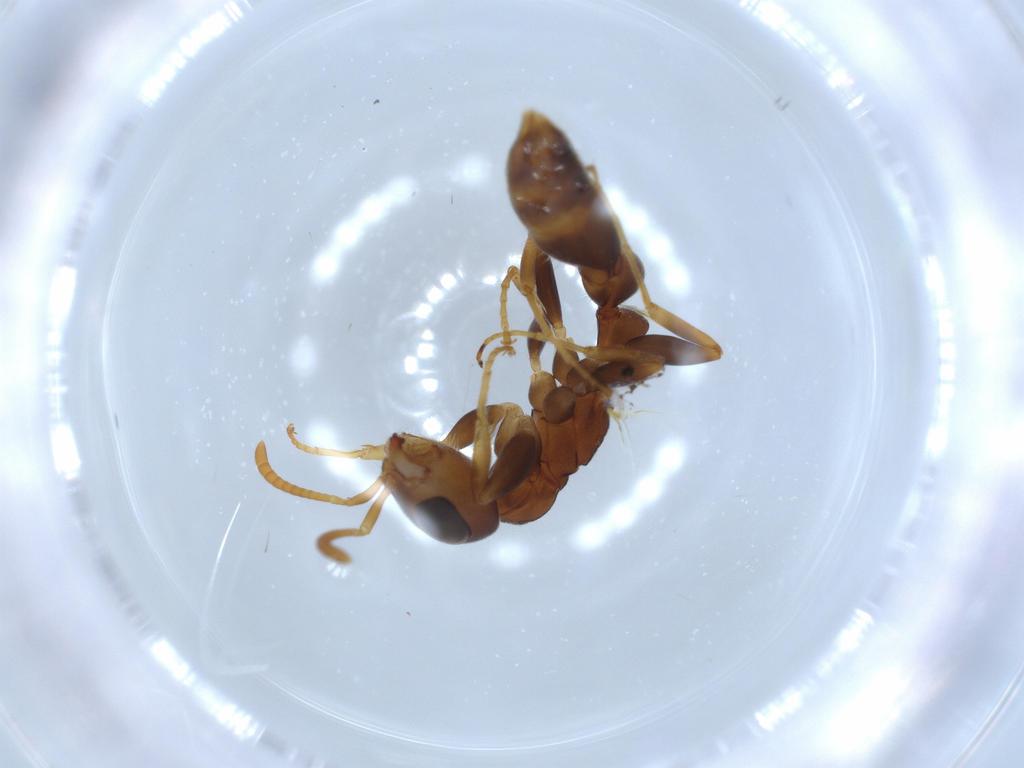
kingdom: Animalia
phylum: Arthropoda
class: Insecta
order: Hymenoptera
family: Formicidae
